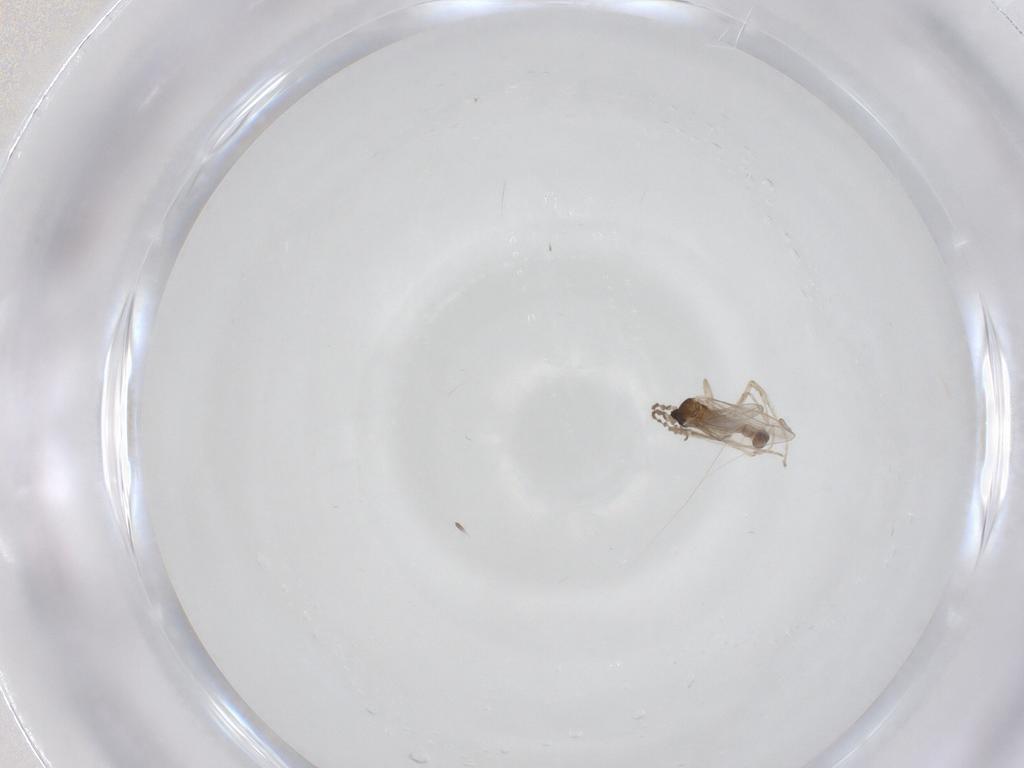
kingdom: Animalia
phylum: Arthropoda
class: Insecta
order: Diptera
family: Cecidomyiidae
